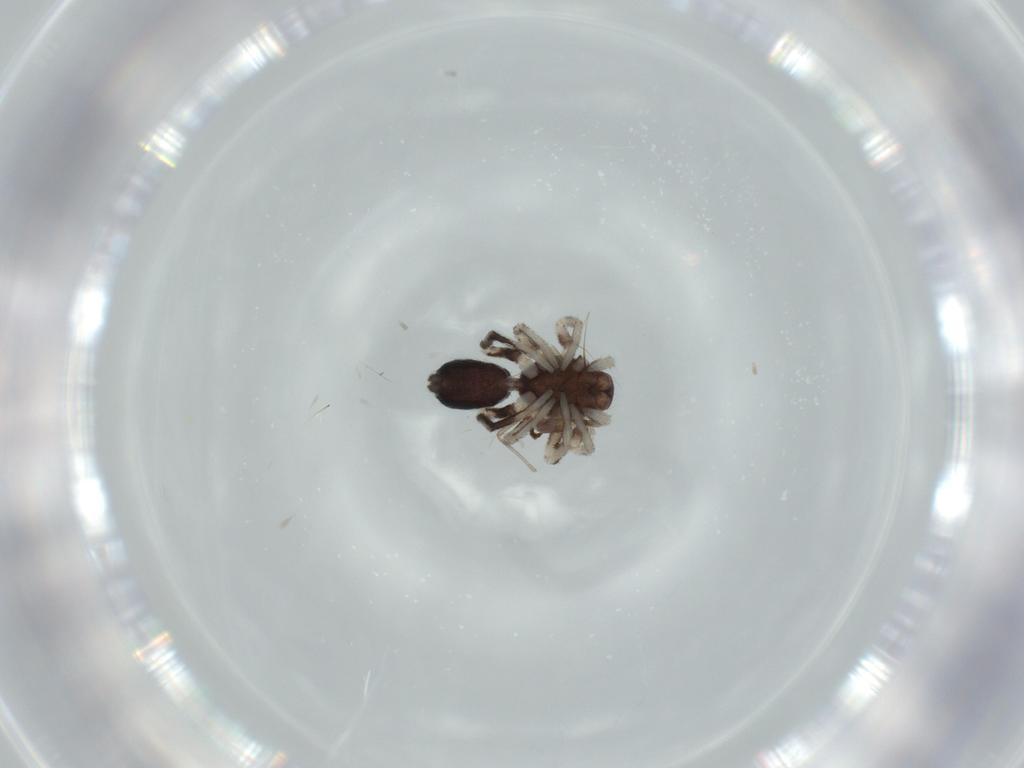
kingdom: Animalia
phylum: Arthropoda
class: Arachnida
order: Araneae
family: Corinnidae
